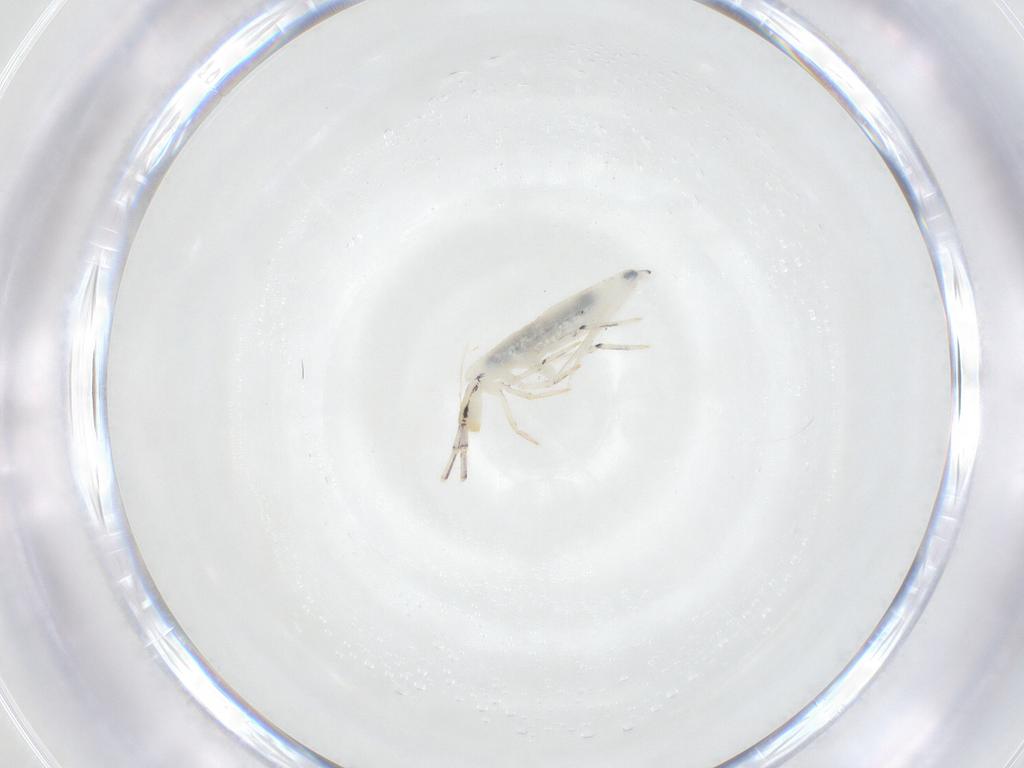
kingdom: Animalia
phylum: Arthropoda
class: Collembola
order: Entomobryomorpha
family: Entomobryidae
